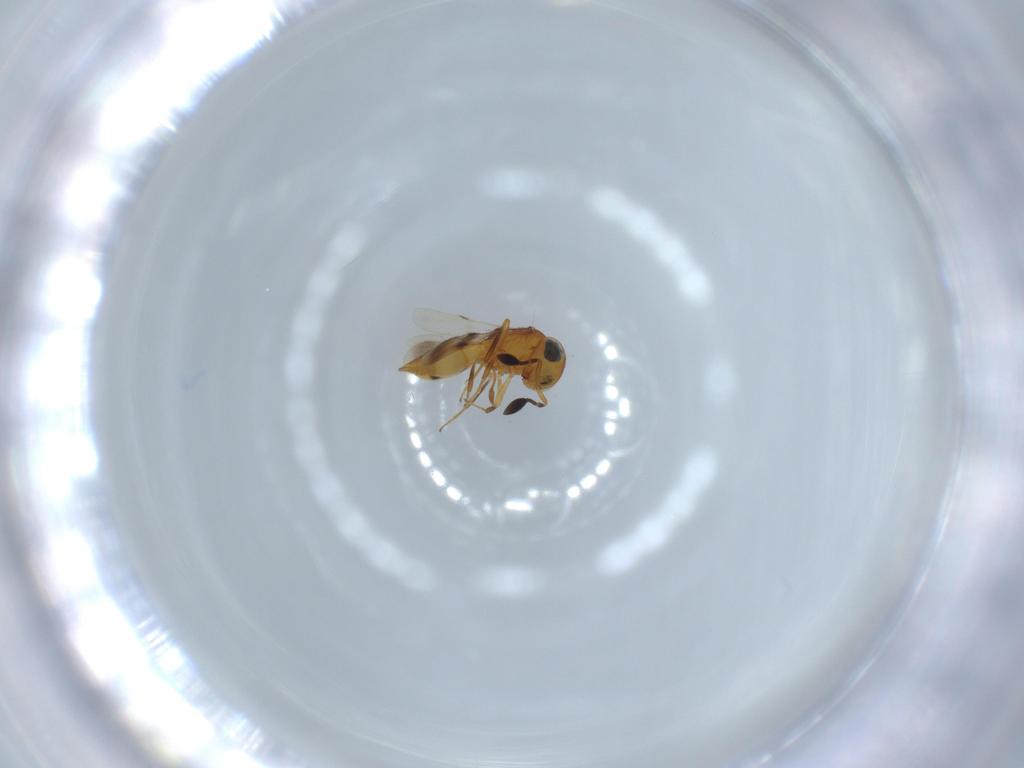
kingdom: Animalia
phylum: Arthropoda
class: Insecta
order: Hymenoptera
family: Scelionidae
